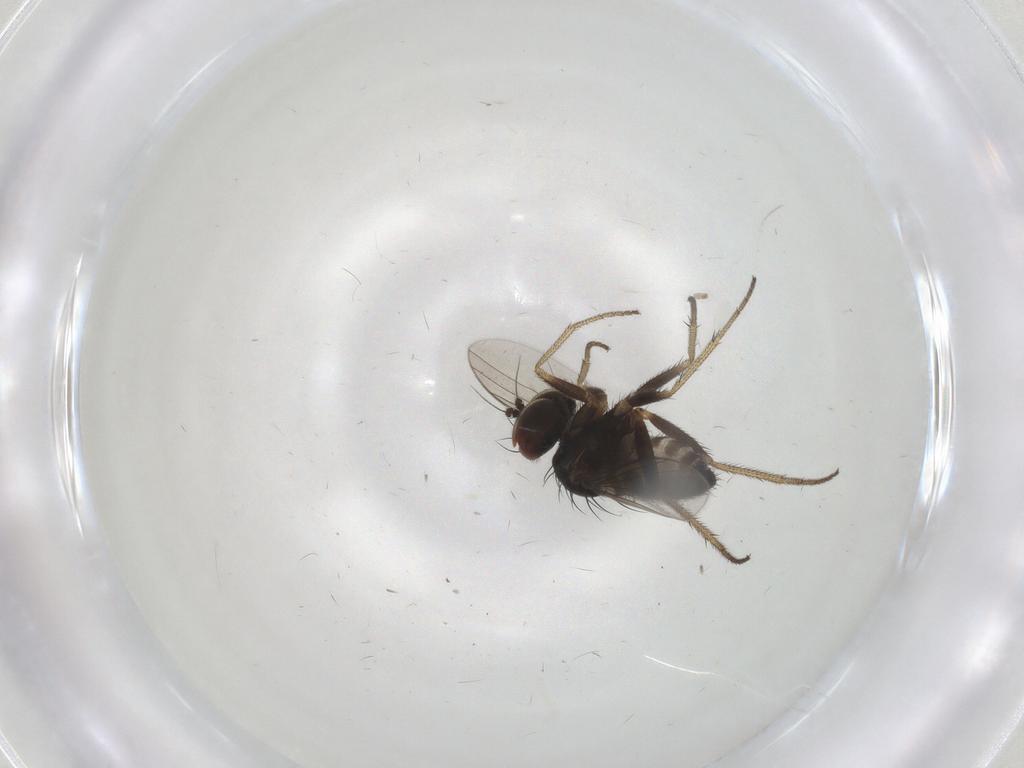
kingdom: Animalia
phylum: Arthropoda
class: Insecta
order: Diptera
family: Dolichopodidae
